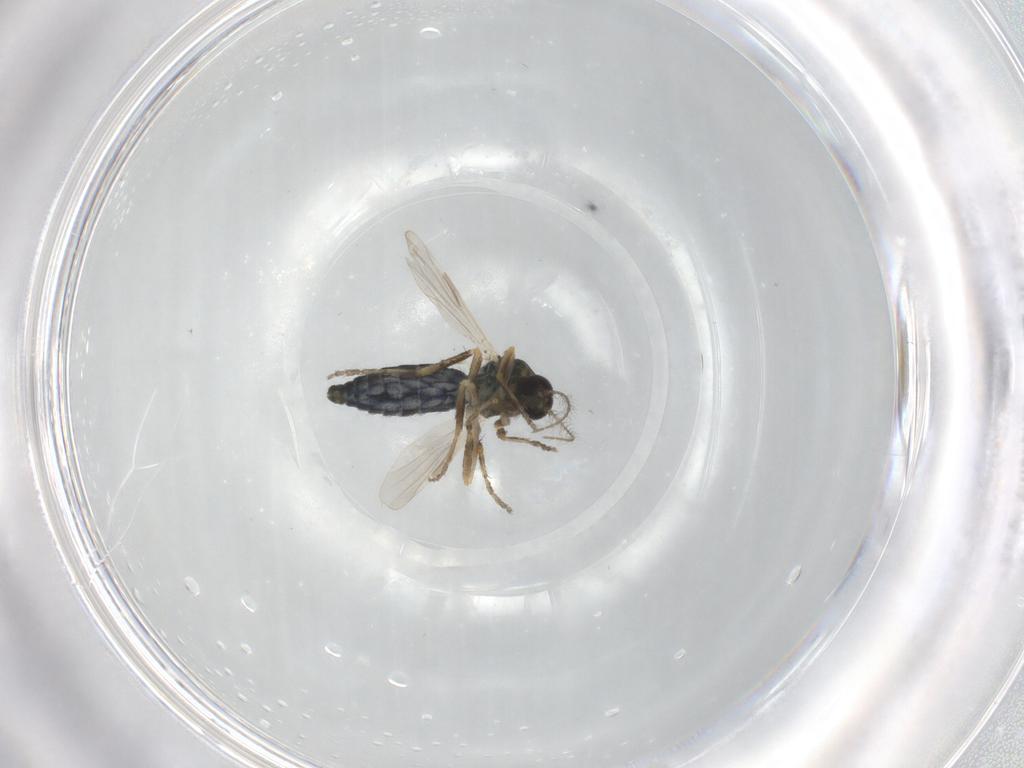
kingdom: Animalia
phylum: Arthropoda
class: Insecta
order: Diptera
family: Ceratopogonidae
